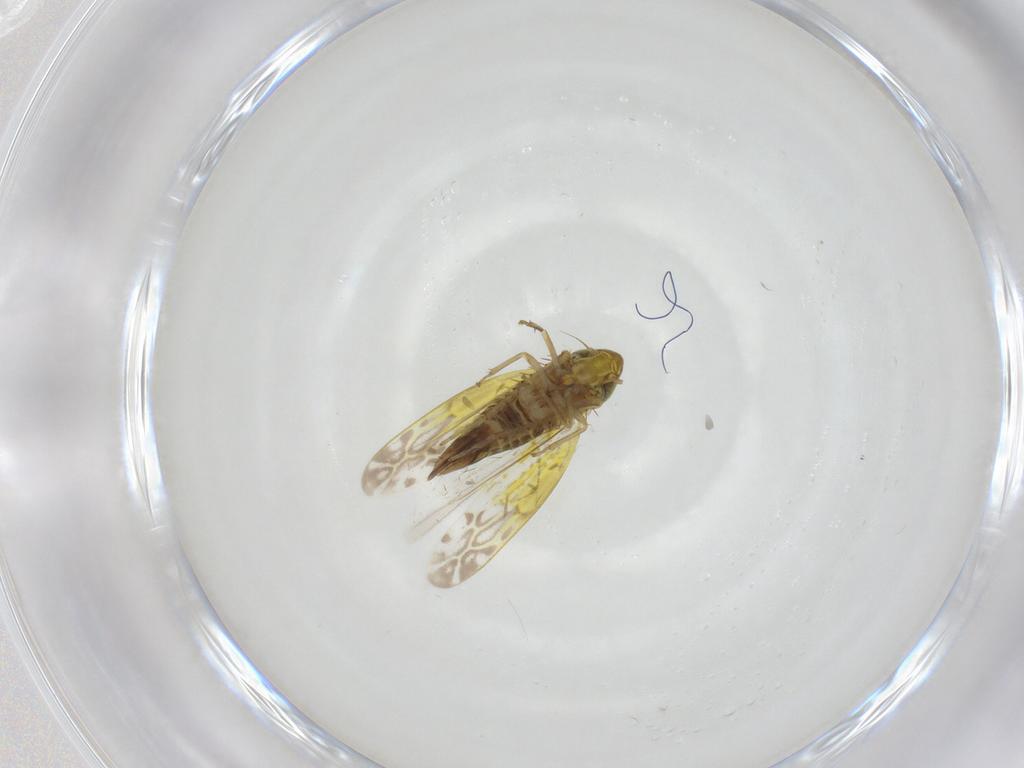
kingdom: Animalia
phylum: Arthropoda
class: Insecta
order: Hemiptera
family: Cicadellidae
